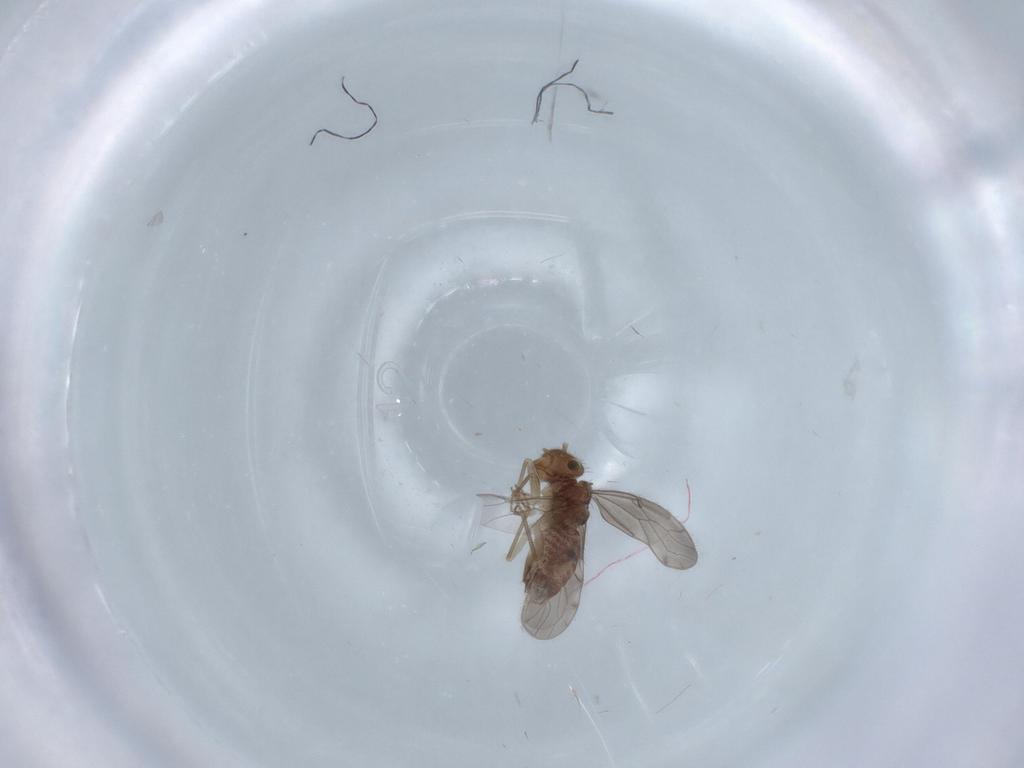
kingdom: Animalia
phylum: Arthropoda
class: Insecta
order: Psocodea
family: Ectopsocidae
